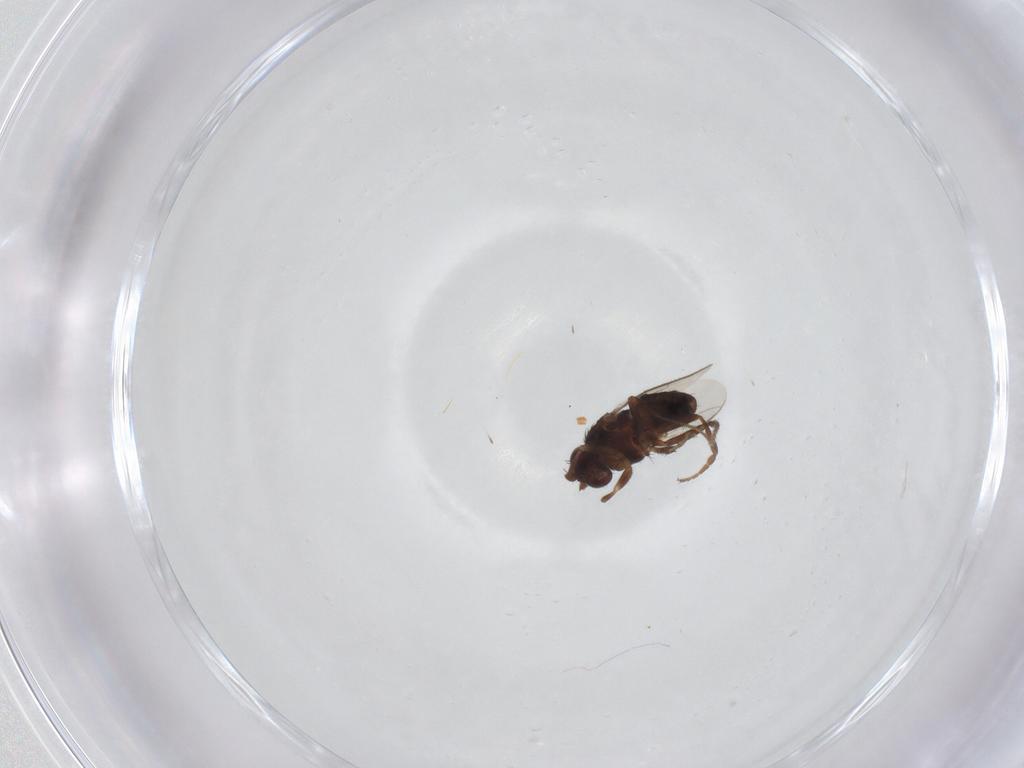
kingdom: Animalia
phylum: Arthropoda
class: Insecta
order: Diptera
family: Sphaeroceridae
